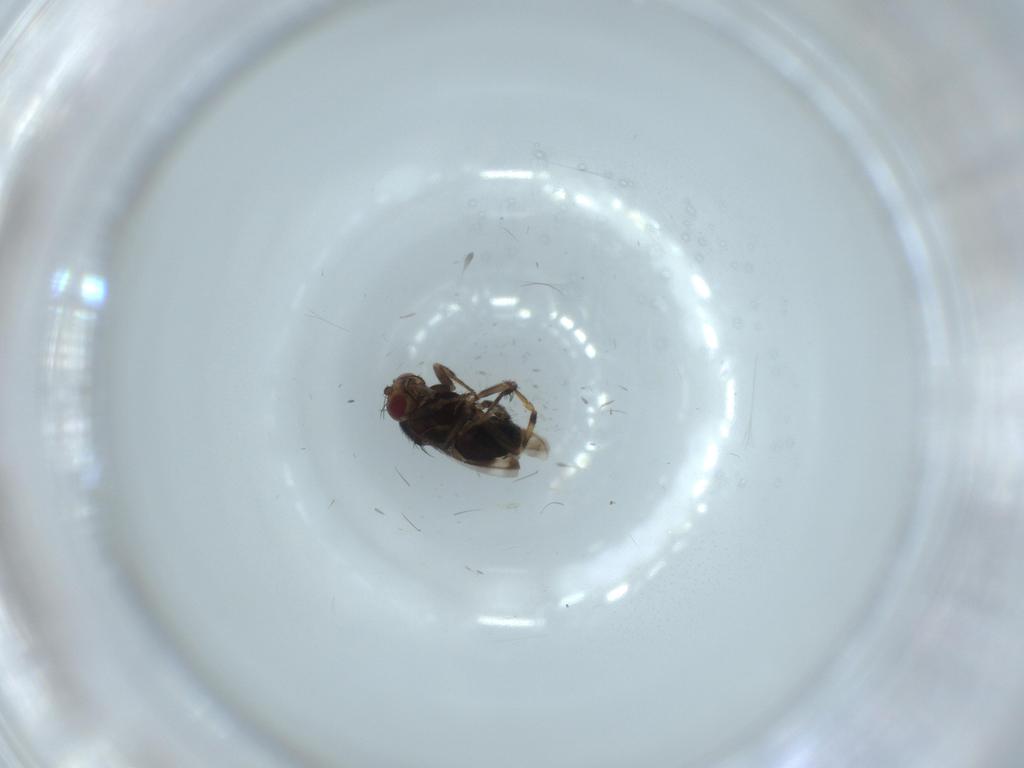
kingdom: Animalia
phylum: Arthropoda
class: Insecta
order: Diptera
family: Sphaeroceridae
